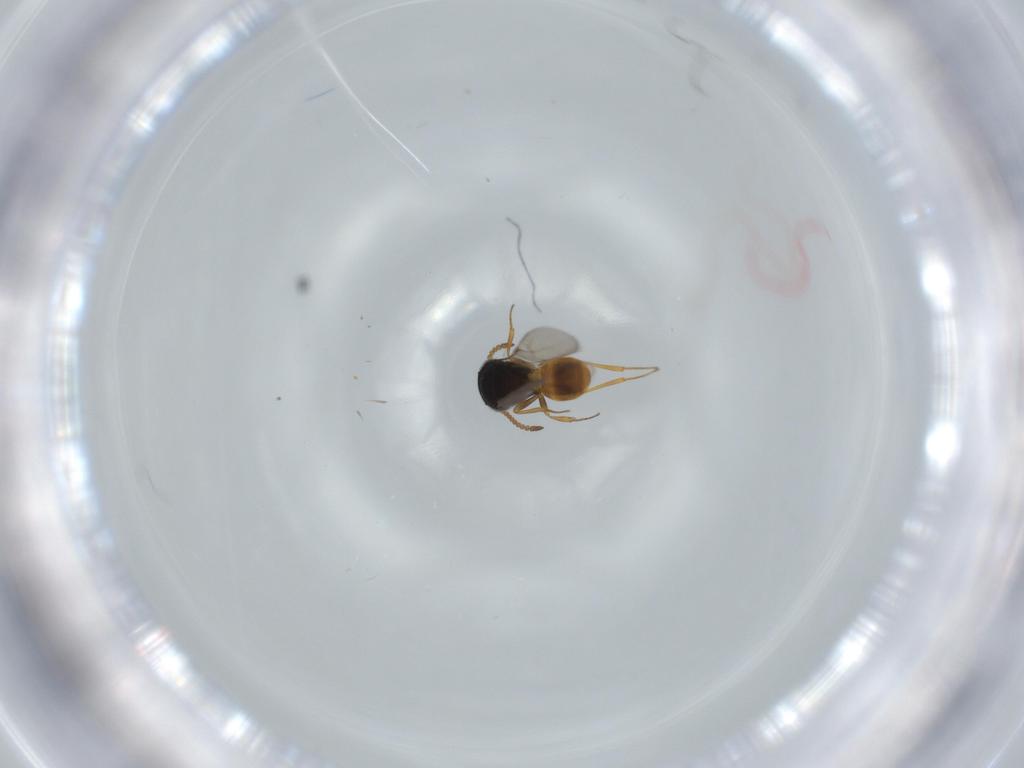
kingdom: Animalia
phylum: Arthropoda
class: Insecta
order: Hymenoptera
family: Scelionidae
